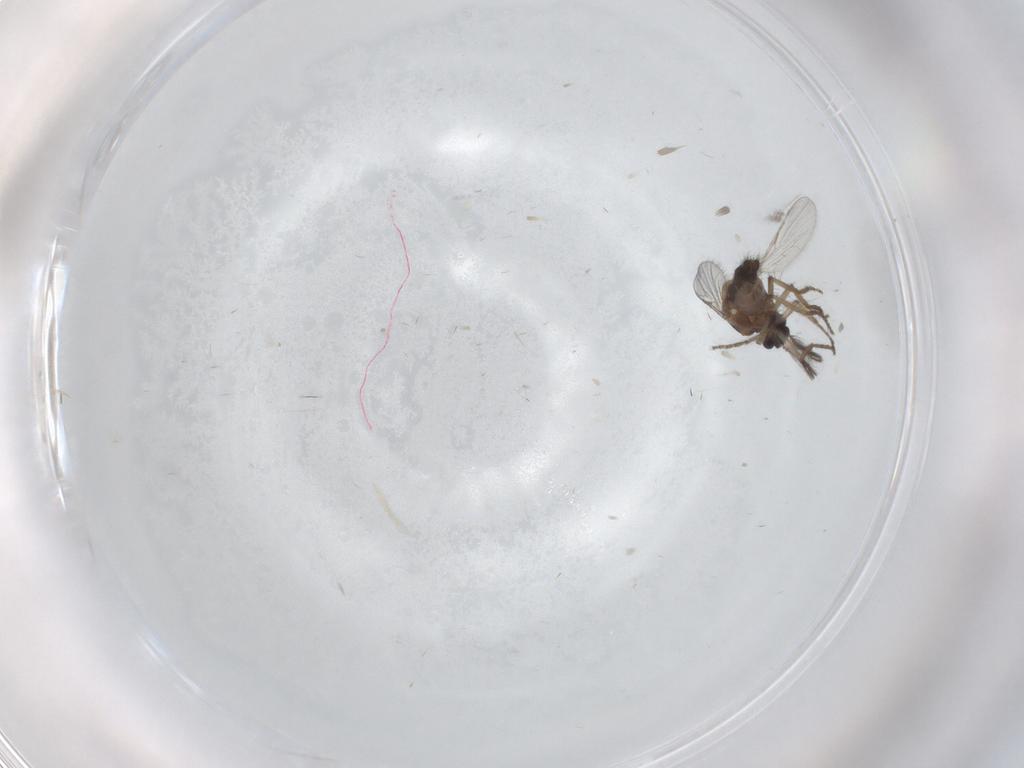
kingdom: Animalia
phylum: Arthropoda
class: Insecta
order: Diptera
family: Ceratopogonidae
